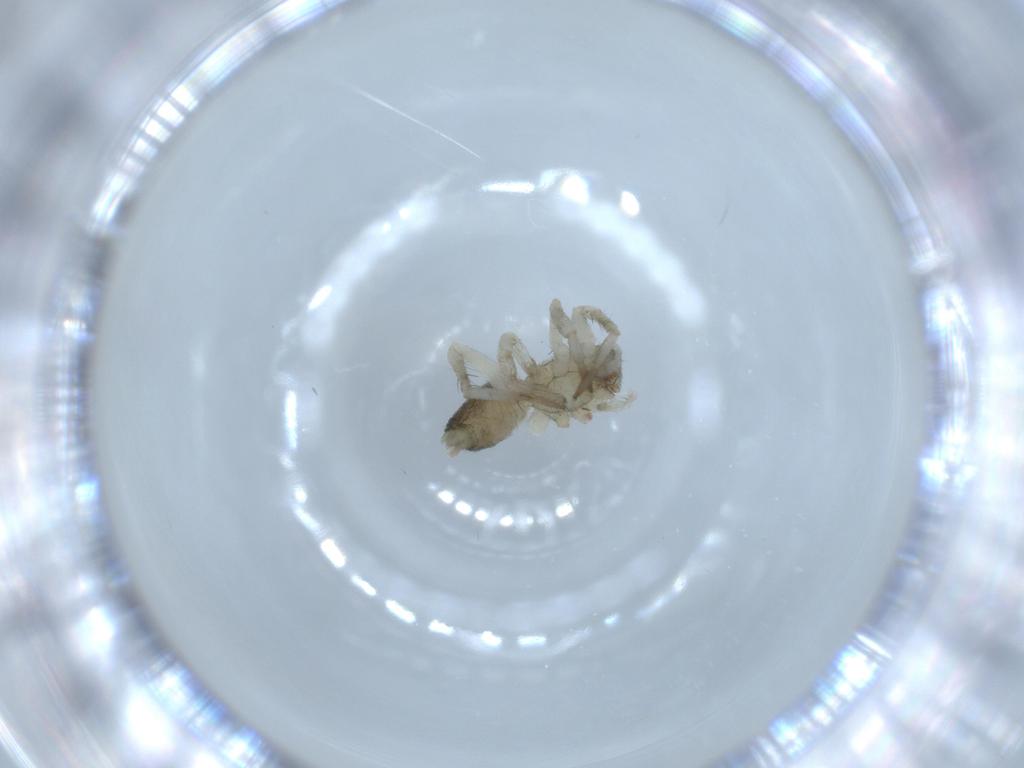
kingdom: Animalia
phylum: Arthropoda
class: Arachnida
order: Araneae
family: Amaurobiidae
